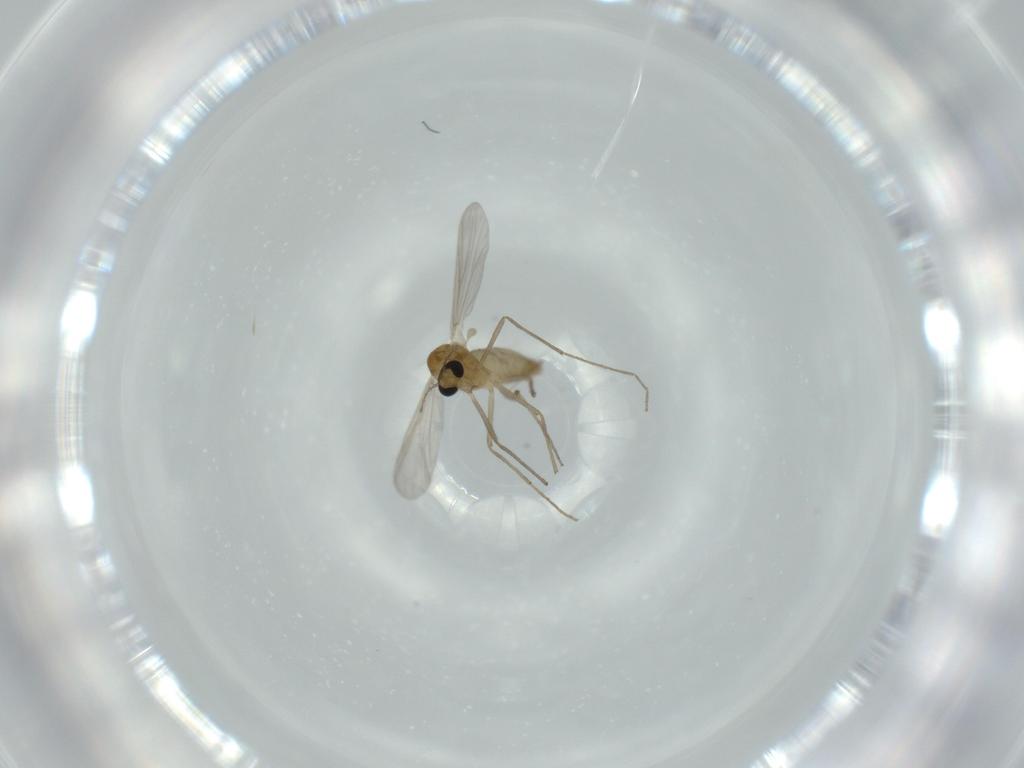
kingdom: Animalia
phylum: Arthropoda
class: Insecta
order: Diptera
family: Chironomidae
